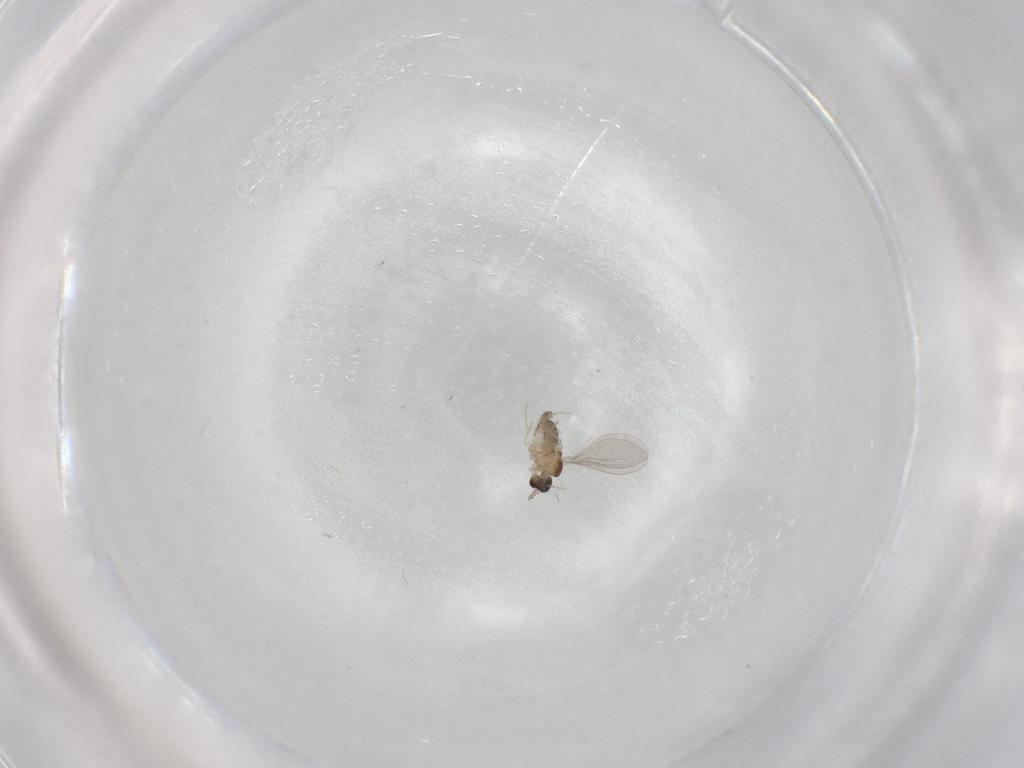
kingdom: Animalia
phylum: Arthropoda
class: Insecta
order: Diptera
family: Cecidomyiidae
